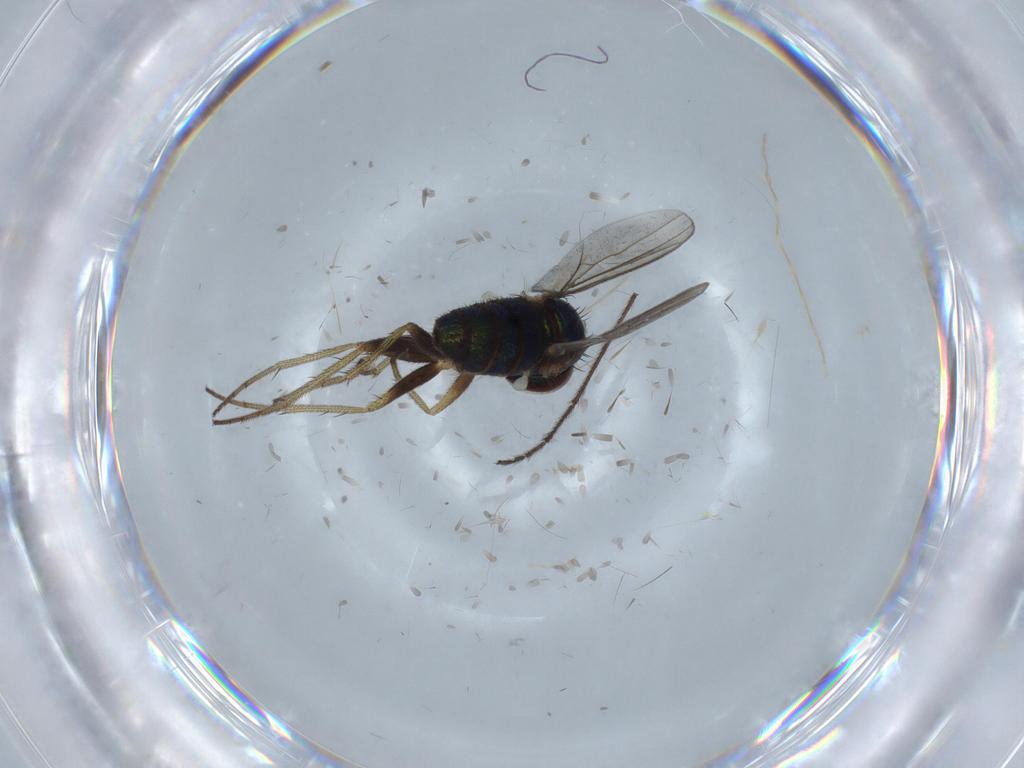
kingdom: Animalia
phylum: Arthropoda
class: Insecta
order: Diptera
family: Limoniidae
